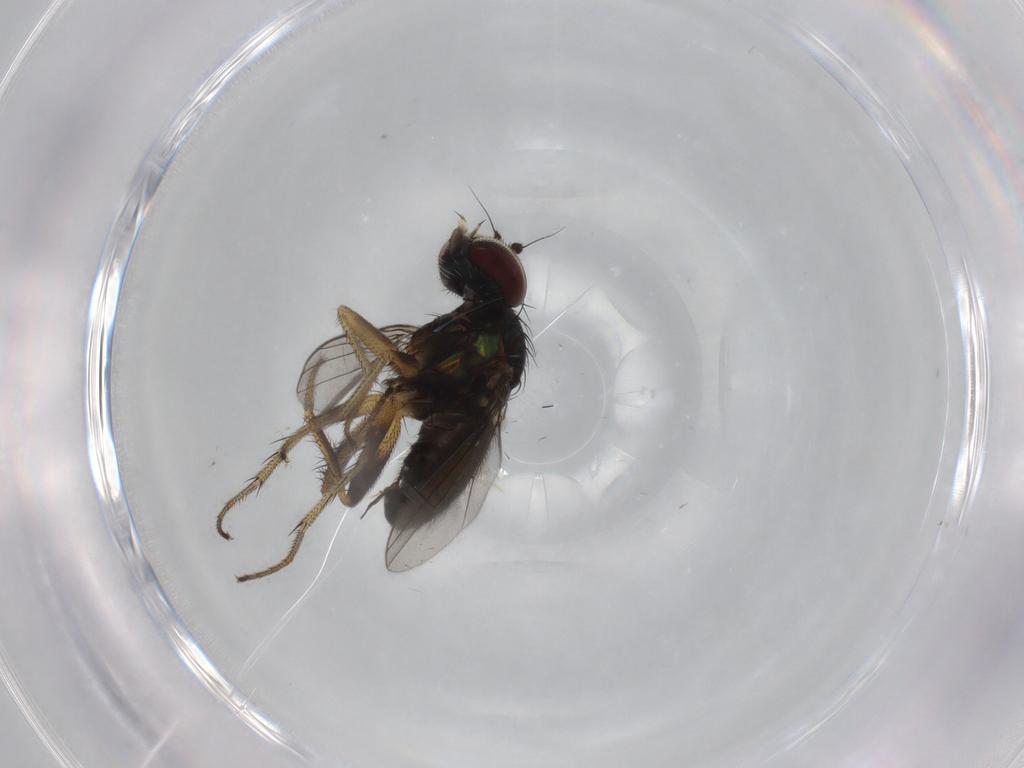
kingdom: Animalia
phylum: Arthropoda
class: Insecta
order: Diptera
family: Dolichopodidae
